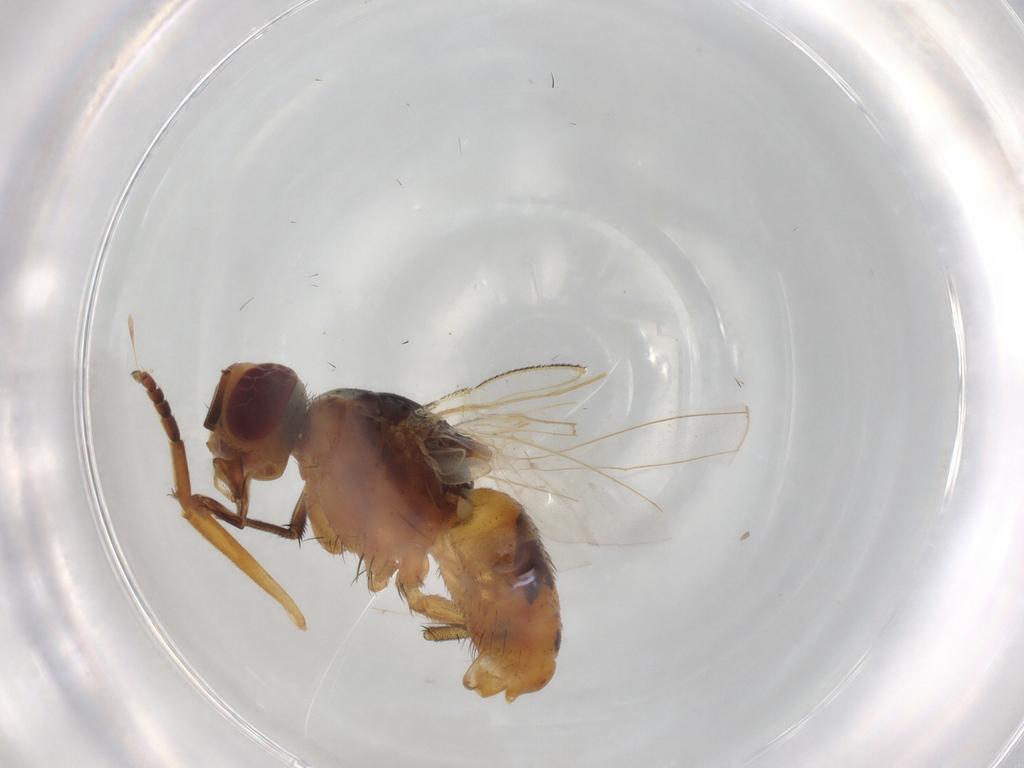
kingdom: Animalia
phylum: Arthropoda
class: Insecta
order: Diptera
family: Muscidae
